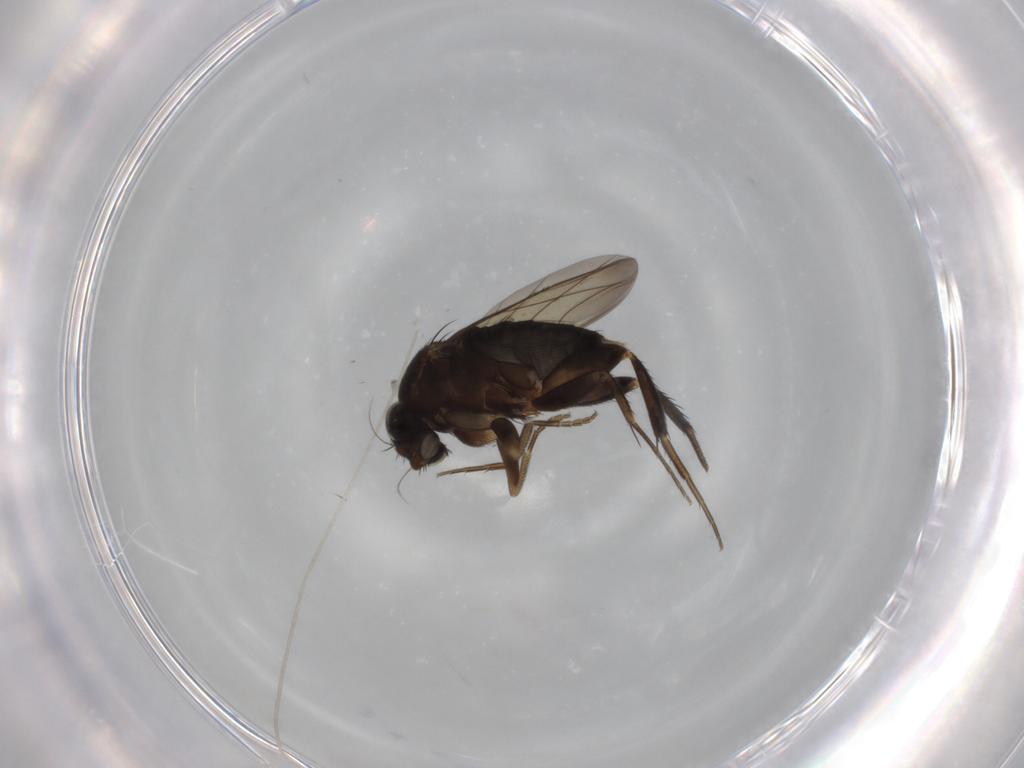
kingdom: Animalia
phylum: Arthropoda
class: Insecta
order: Diptera
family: Phoridae
